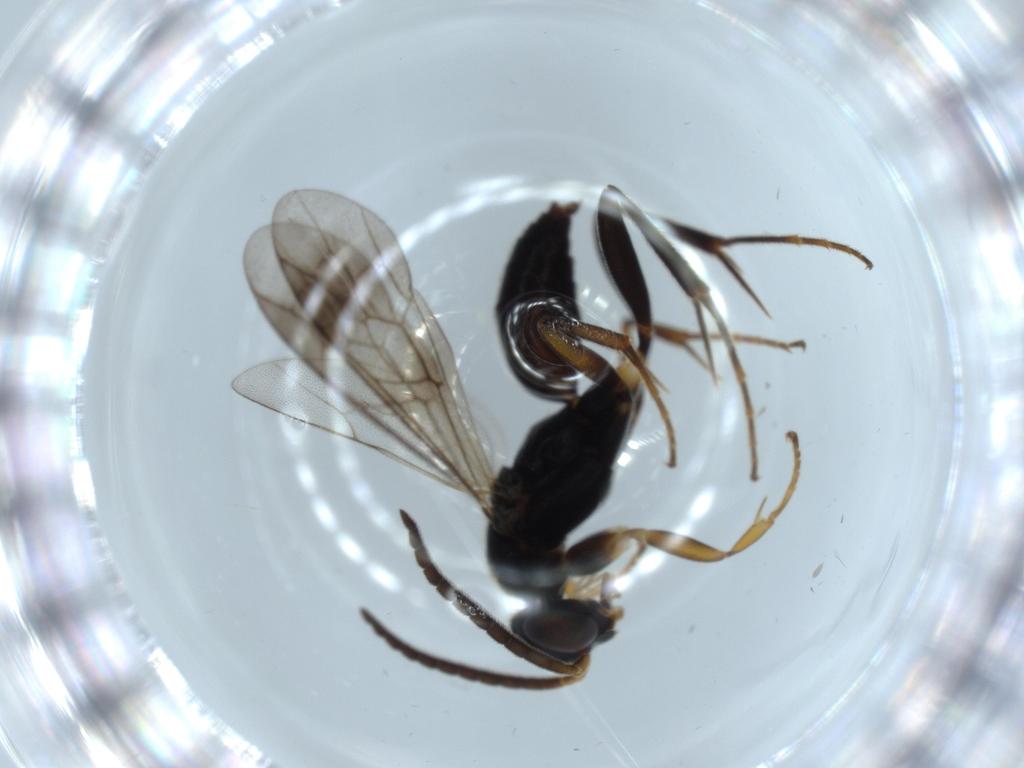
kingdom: Animalia
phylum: Arthropoda
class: Insecta
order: Hymenoptera
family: Pompilidae
